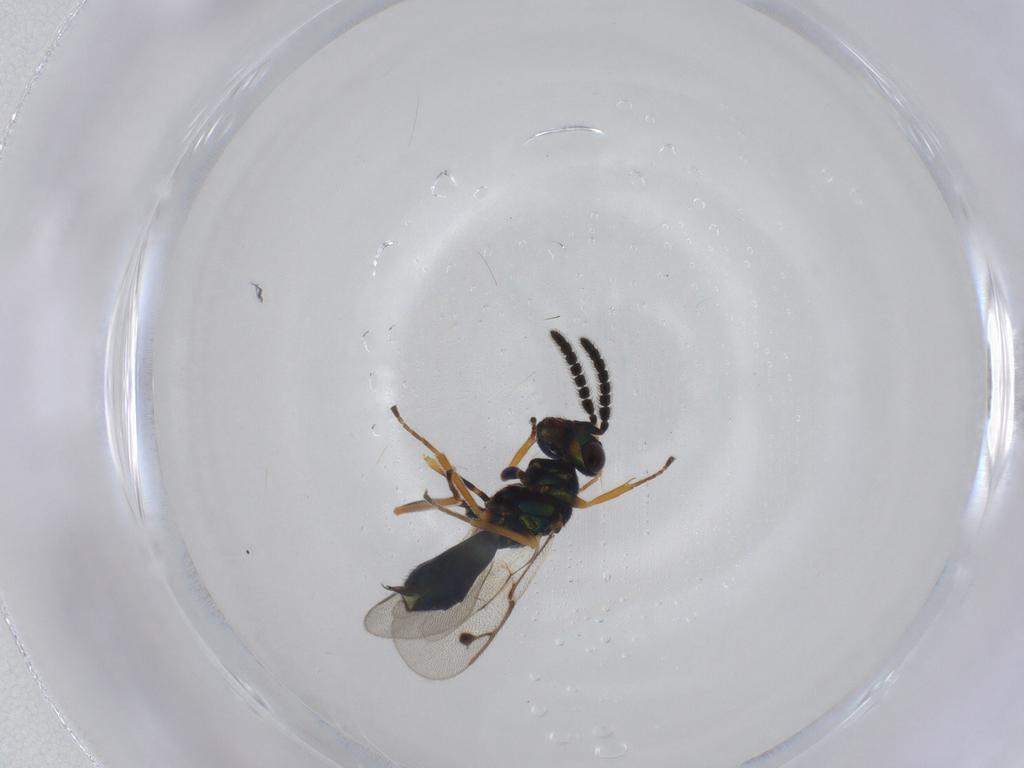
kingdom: Animalia
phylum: Arthropoda
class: Insecta
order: Hymenoptera
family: Pirenidae
